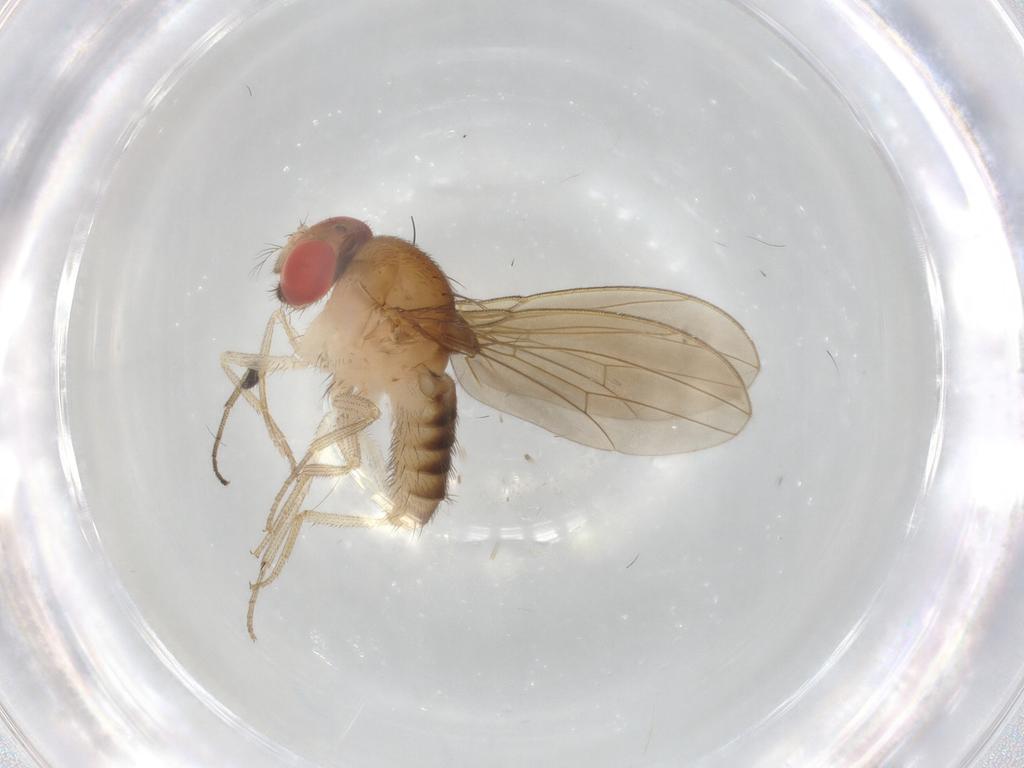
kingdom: Animalia
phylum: Arthropoda
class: Insecta
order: Diptera
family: Drosophilidae
